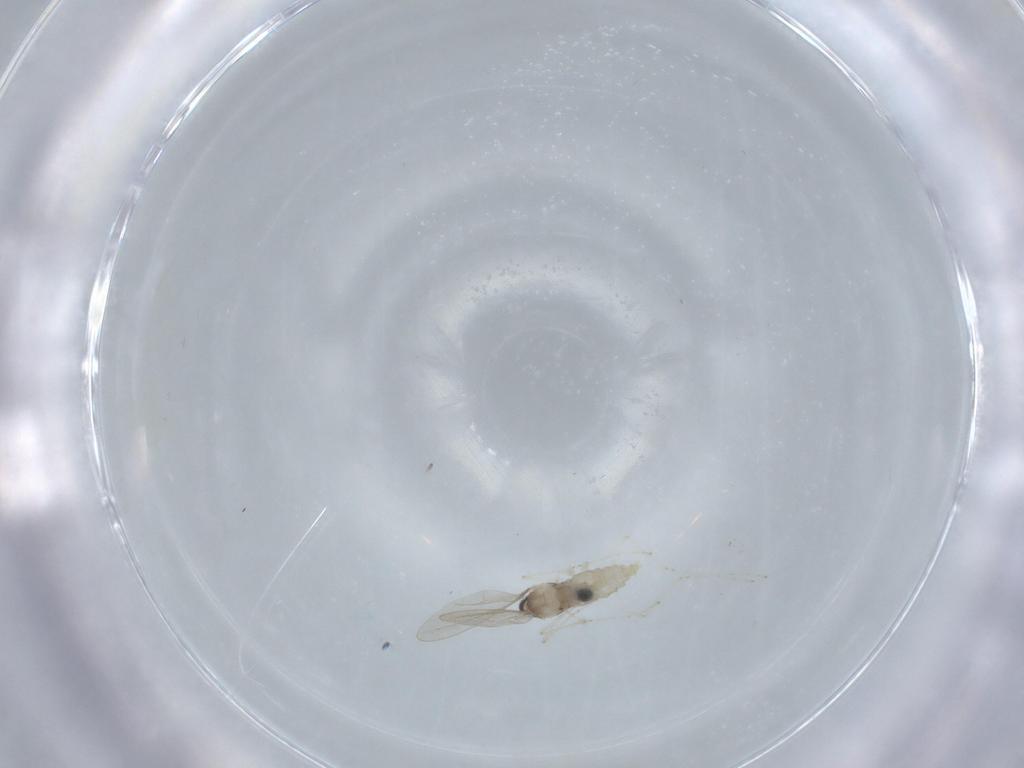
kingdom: Animalia
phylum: Arthropoda
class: Insecta
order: Diptera
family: Cecidomyiidae
